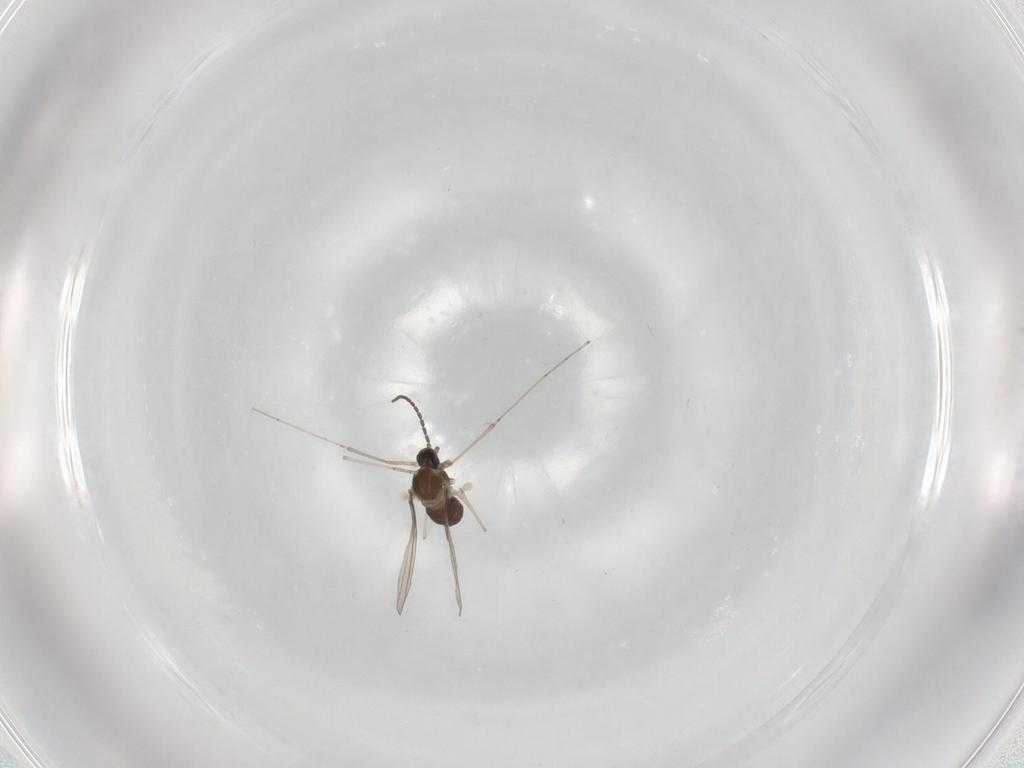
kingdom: Animalia
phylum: Arthropoda
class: Insecta
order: Diptera
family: Cecidomyiidae
